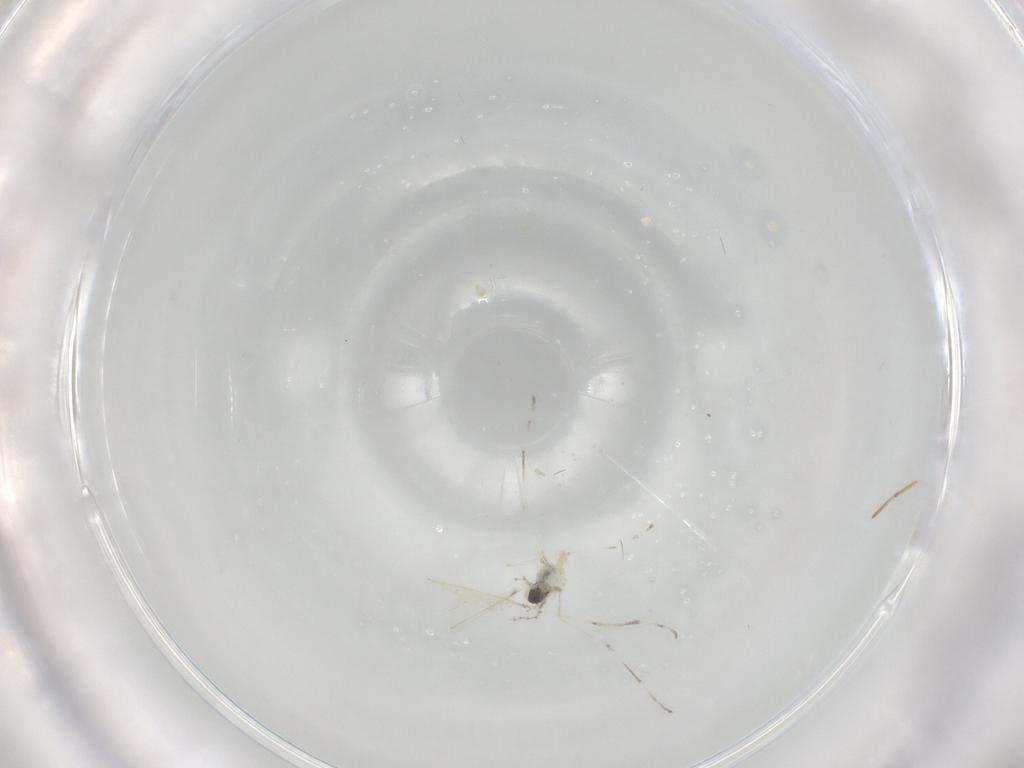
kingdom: Animalia
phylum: Arthropoda
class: Insecta
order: Diptera
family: Cecidomyiidae
